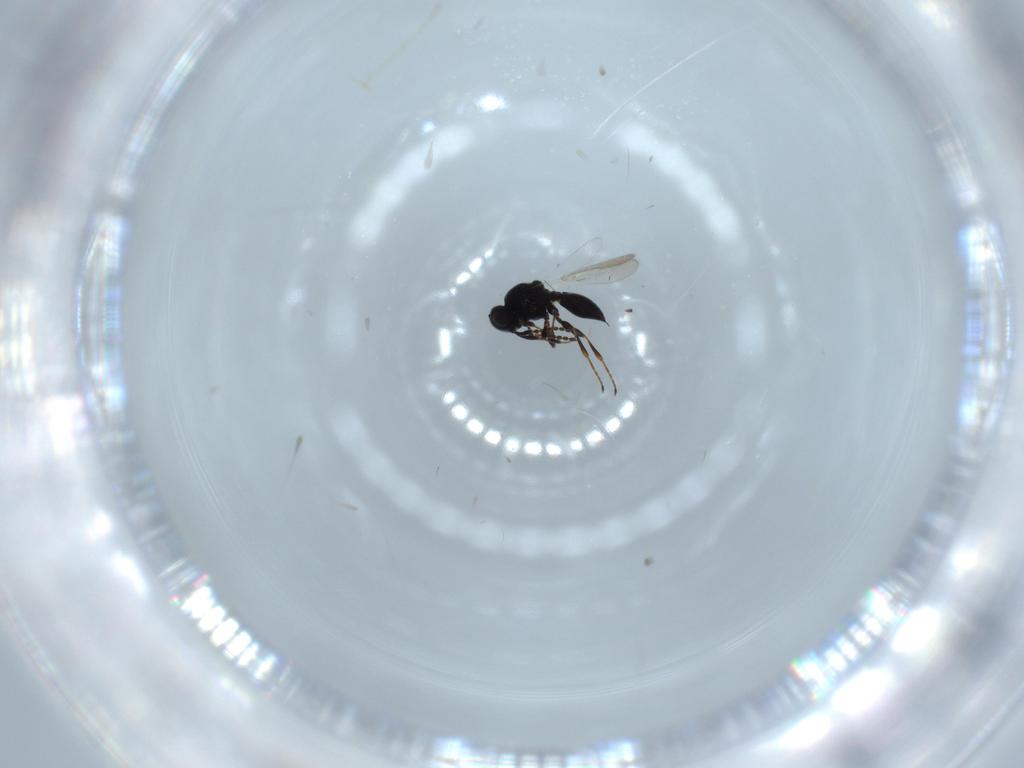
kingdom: Animalia
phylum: Arthropoda
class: Insecta
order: Hymenoptera
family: Platygastridae
